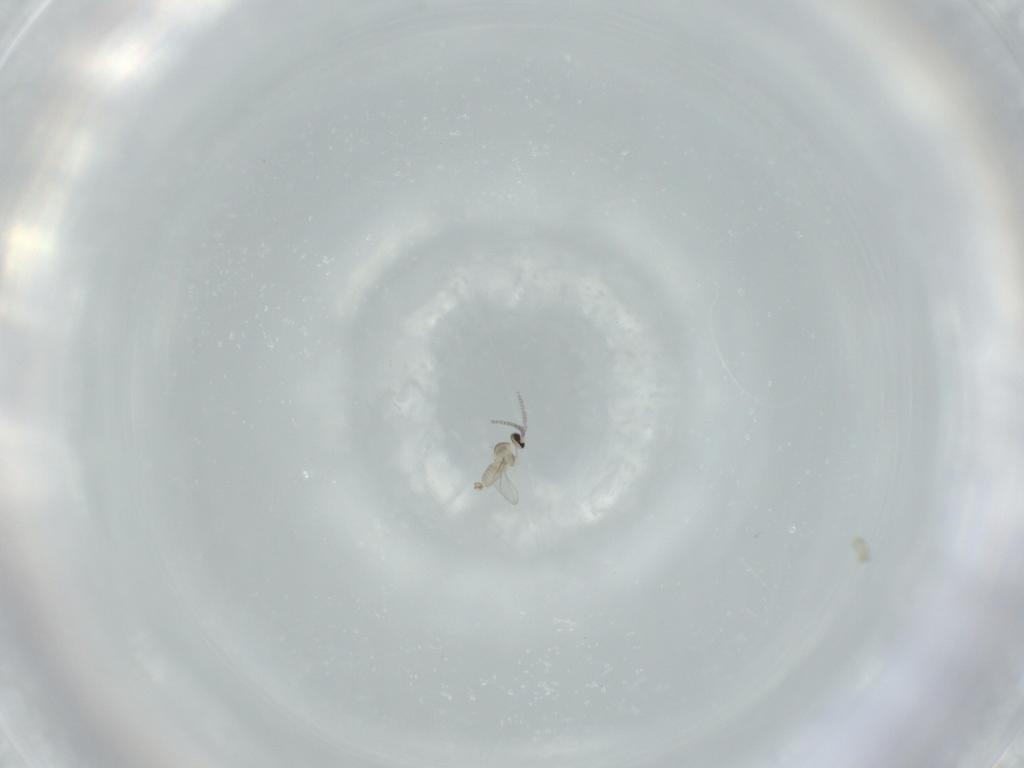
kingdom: Animalia
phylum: Arthropoda
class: Insecta
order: Diptera
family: Cecidomyiidae
